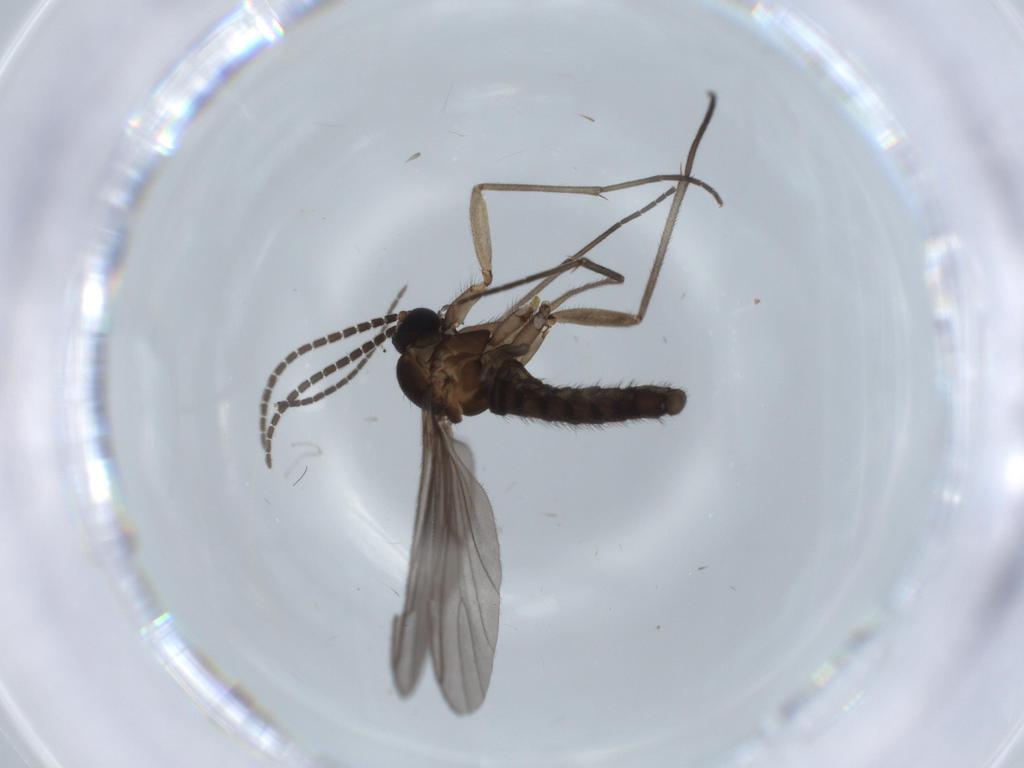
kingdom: Animalia
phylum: Arthropoda
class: Insecta
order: Diptera
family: Sciaridae
